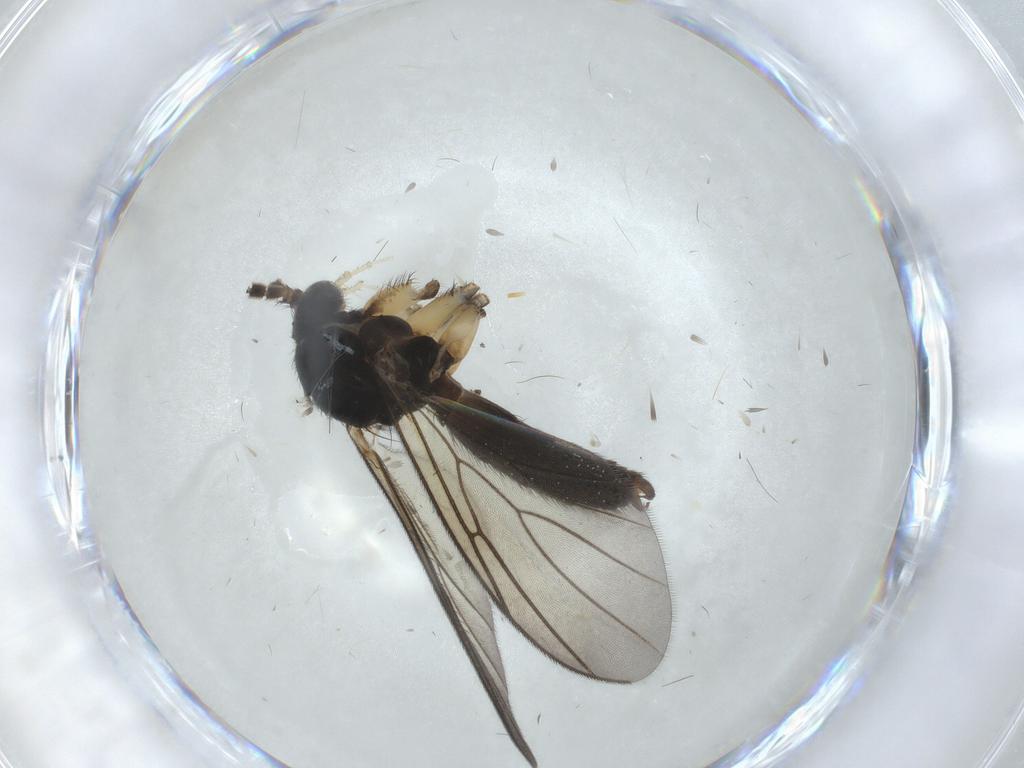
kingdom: Animalia
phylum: Arthropoda
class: Insecta
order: Diptera
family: Mycetophilidae
